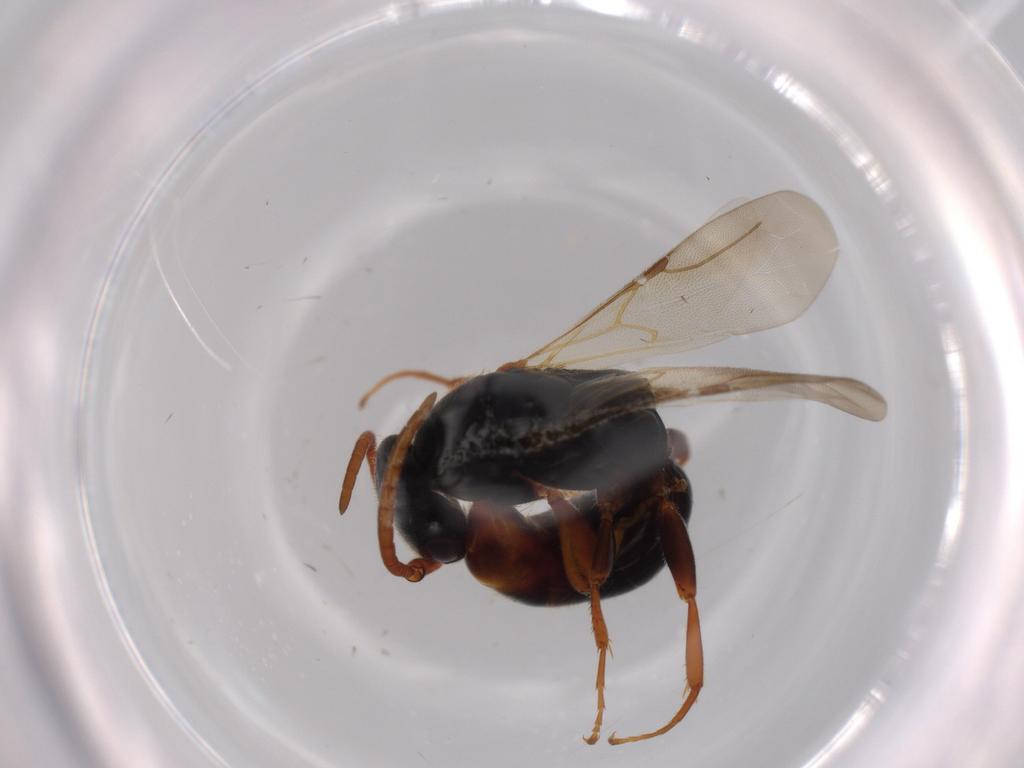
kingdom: Animalia
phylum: Arthropoda
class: Insecta
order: Hymenoptera
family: Bethylidae
